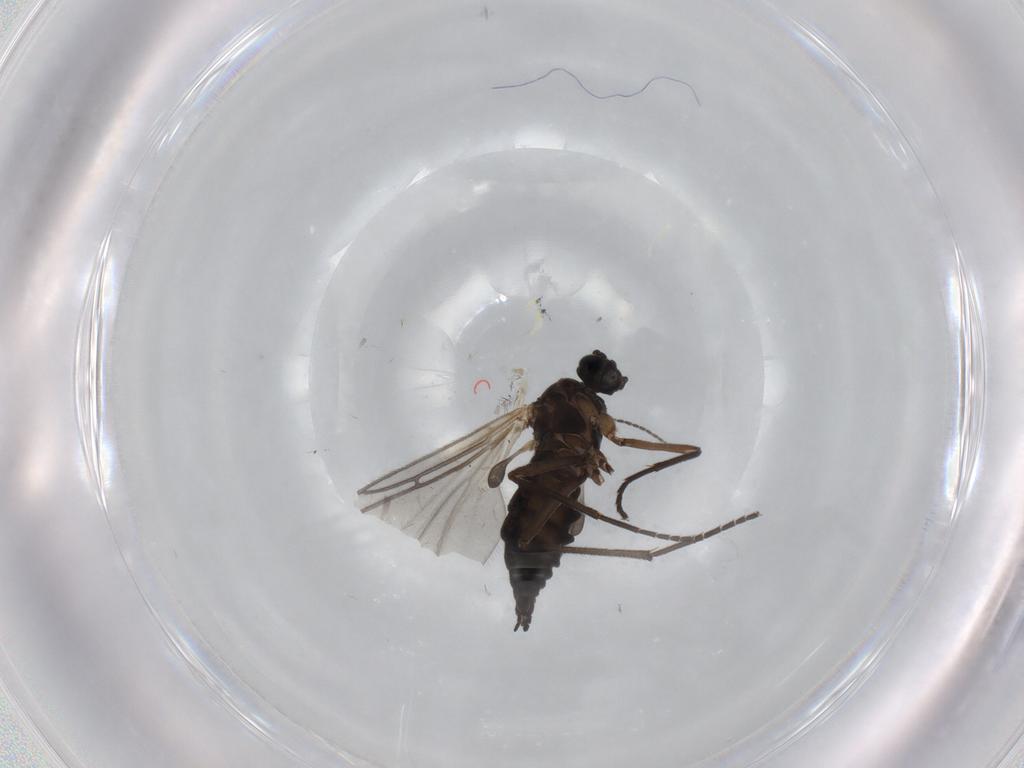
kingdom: Animalia
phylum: Arthropoda
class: Insecta
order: Diptera
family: Sciaridae
